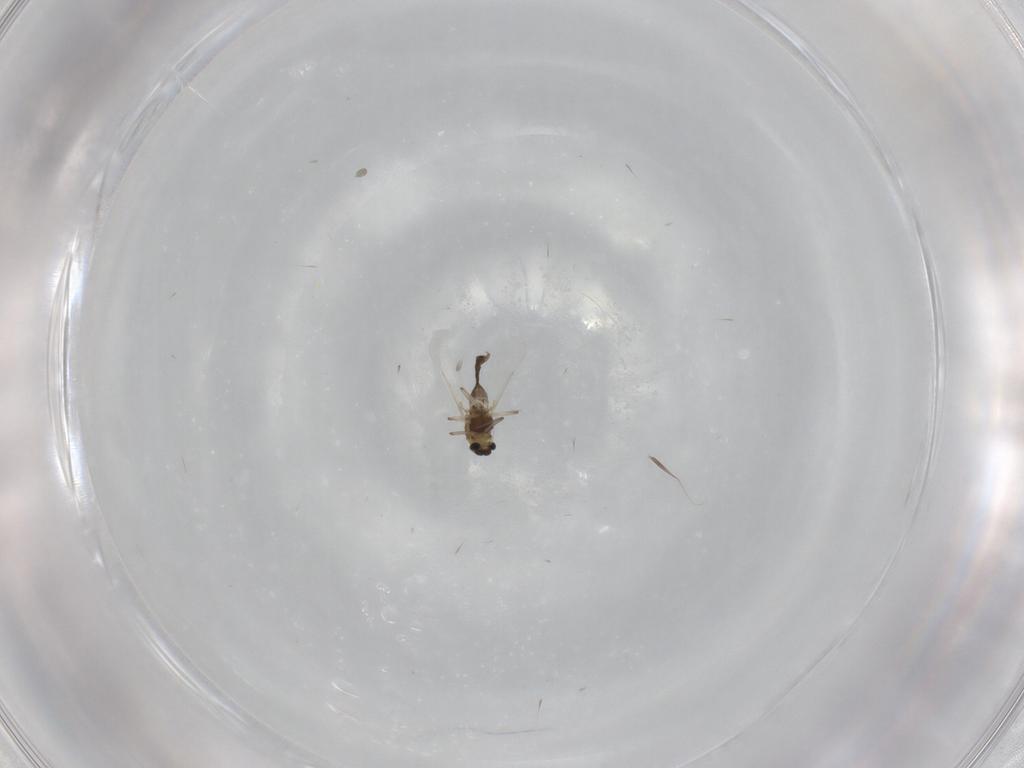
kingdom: Animalia
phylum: Arthropoda
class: Insecta
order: Diptera
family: Chironomidae
